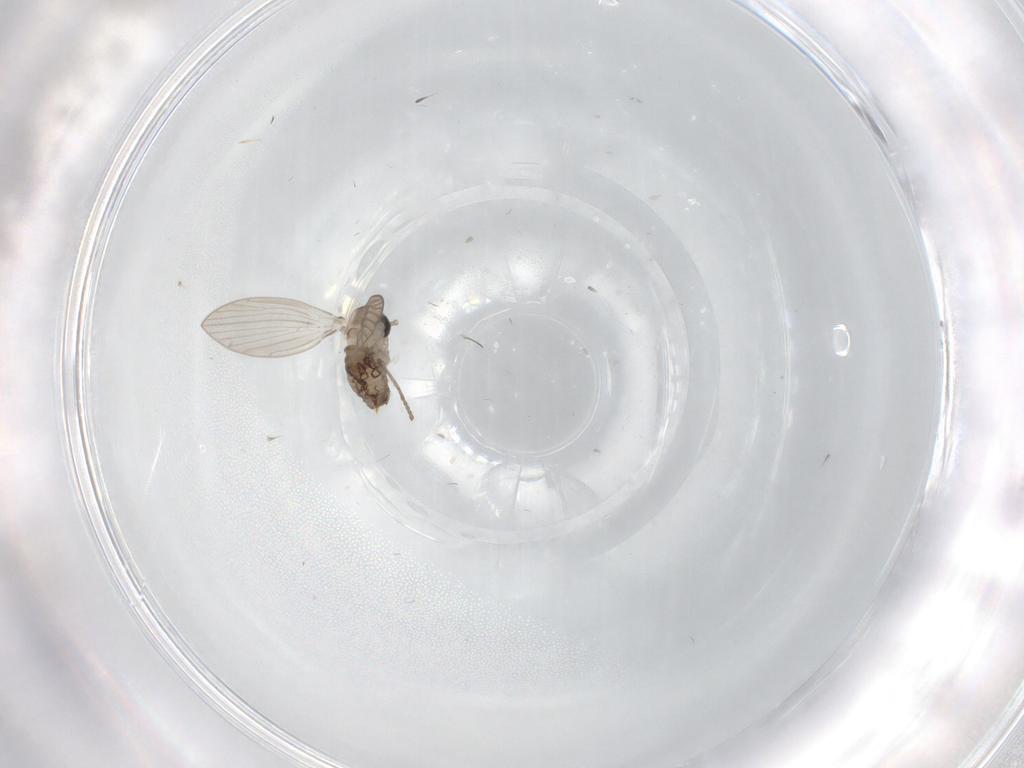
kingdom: Animalia
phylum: Arthropoda
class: Insecta
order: Diptera
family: Psychodidae
